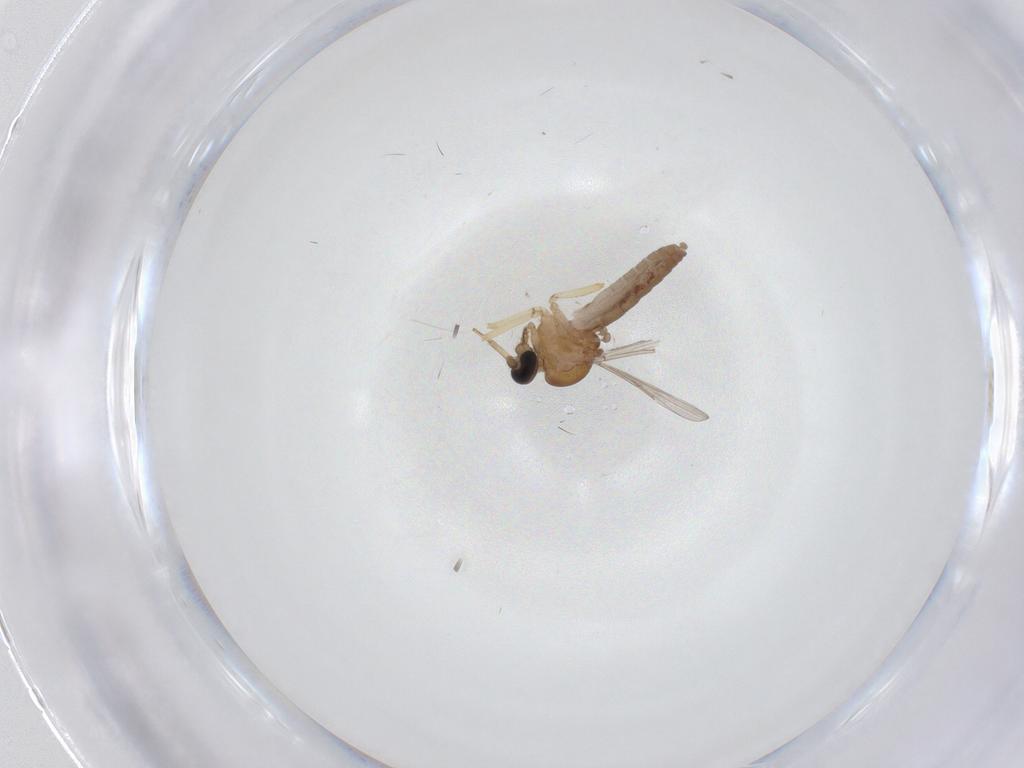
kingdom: Animalia
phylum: Arthropoda
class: Insecta
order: Diptera
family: Ceratopogonidae
